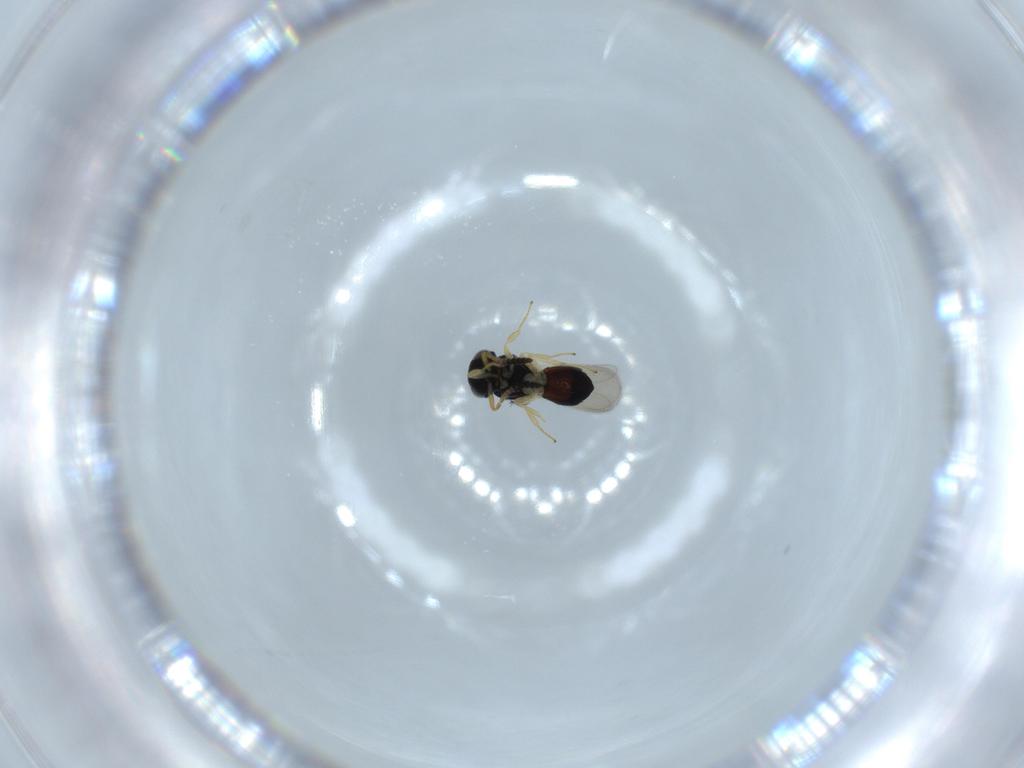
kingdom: Animalia
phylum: Arthropoda
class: Insecta
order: Hymenoptera
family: Scelionidae
